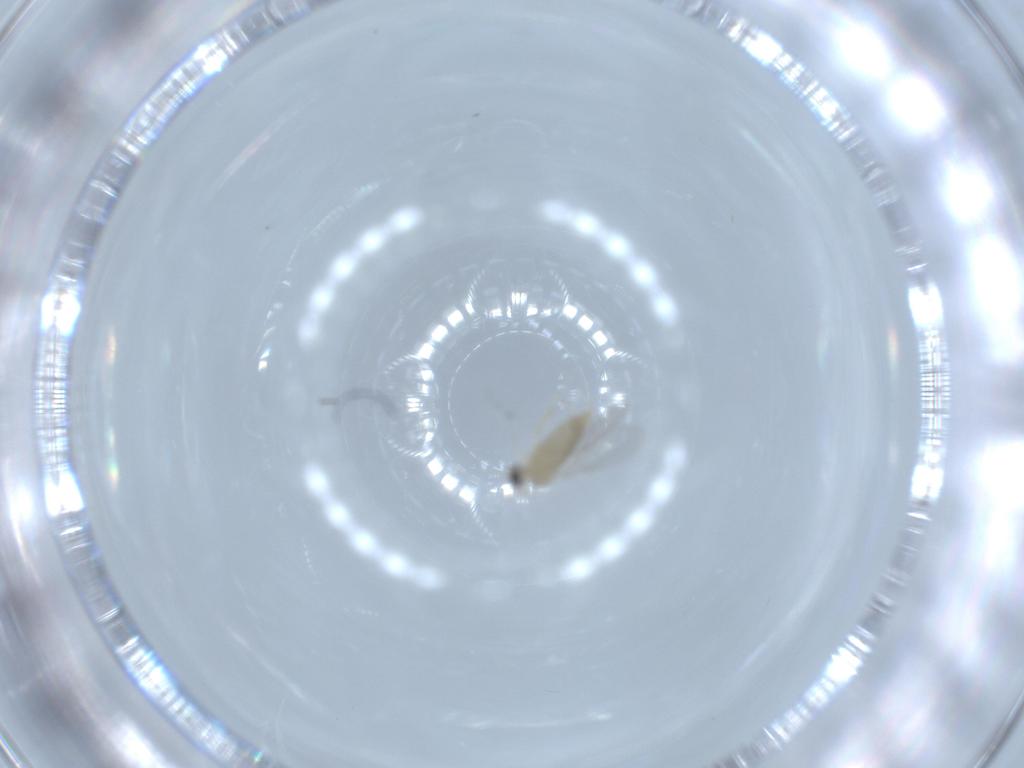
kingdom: Animalia
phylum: Arthropoda
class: Insecta
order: Diptera
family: Cecidomyiidae
